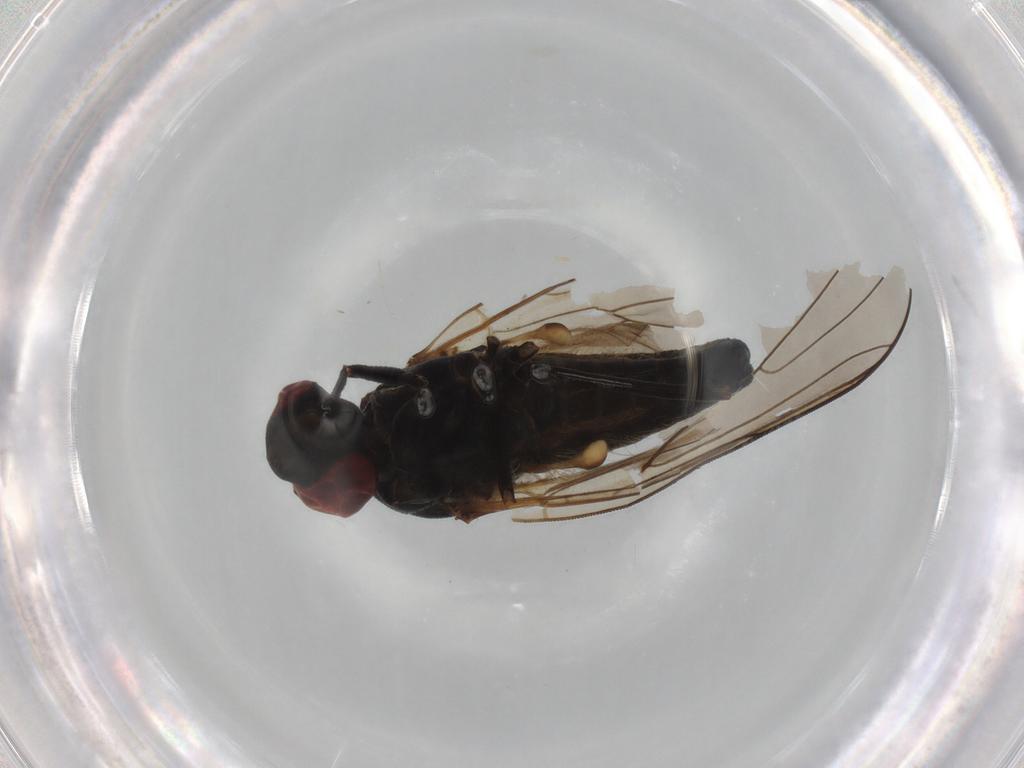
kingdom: Animalia
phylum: Arthropoda
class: Insecta
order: Diptera
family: Bombyliidae
